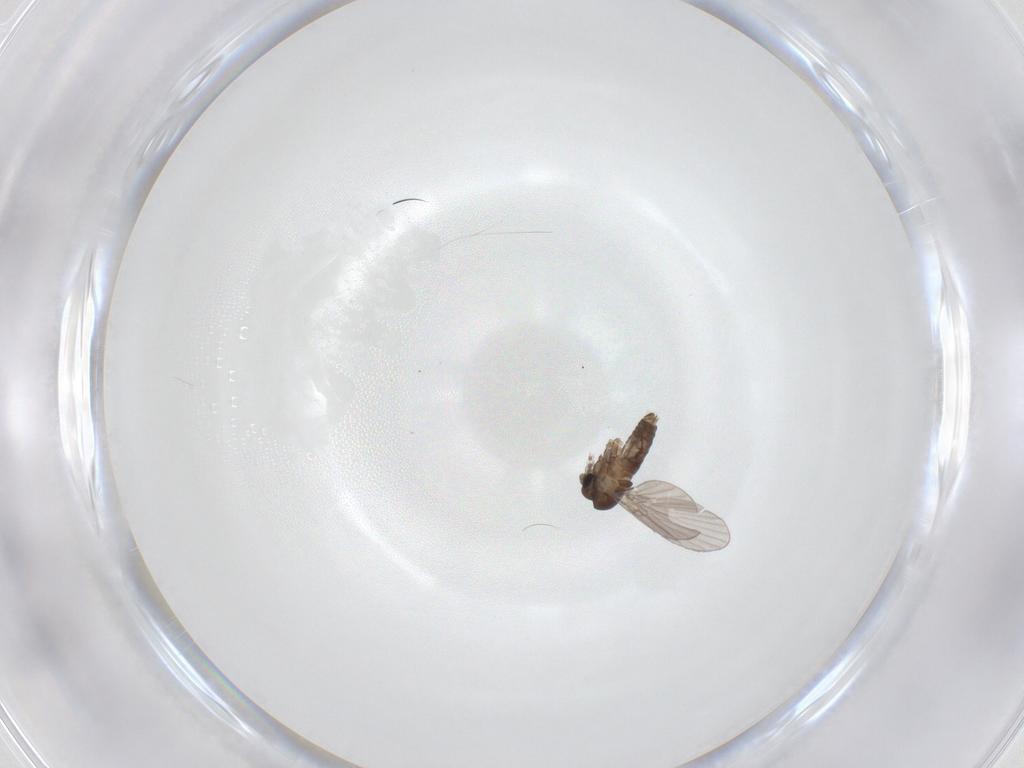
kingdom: Animalia
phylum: Arthropoda
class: Insecta
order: Diptera
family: Cecidomyiidae
